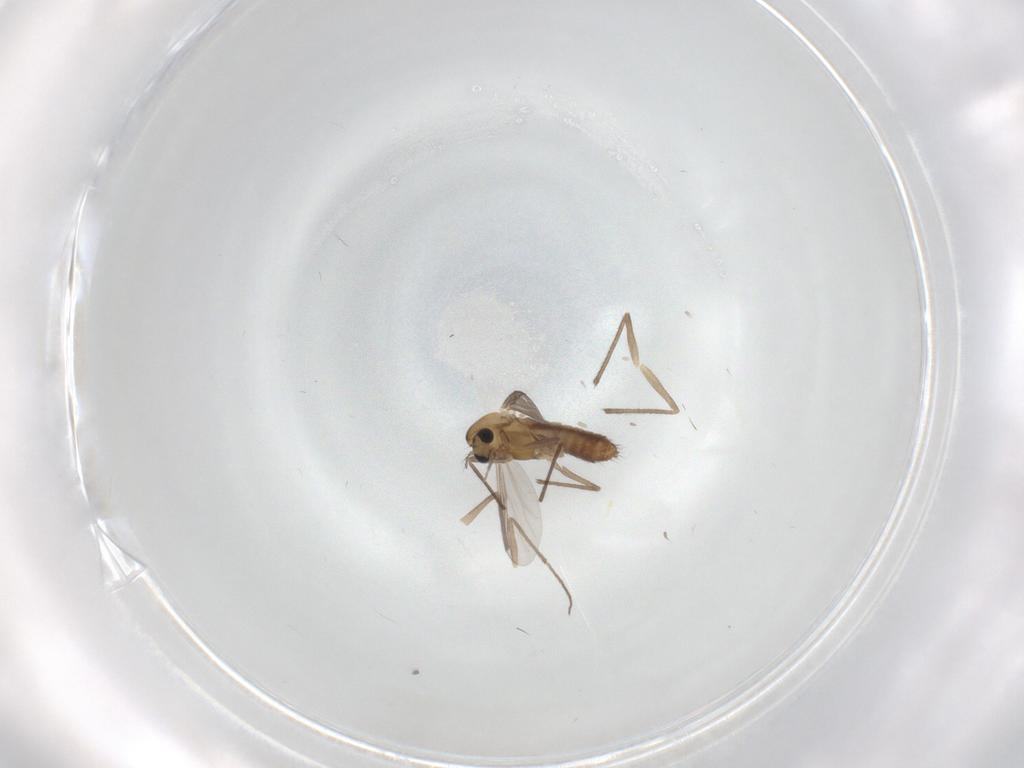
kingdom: Animalia
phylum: Arthropoda
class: Insecta
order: Diptera
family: Chironomidae
